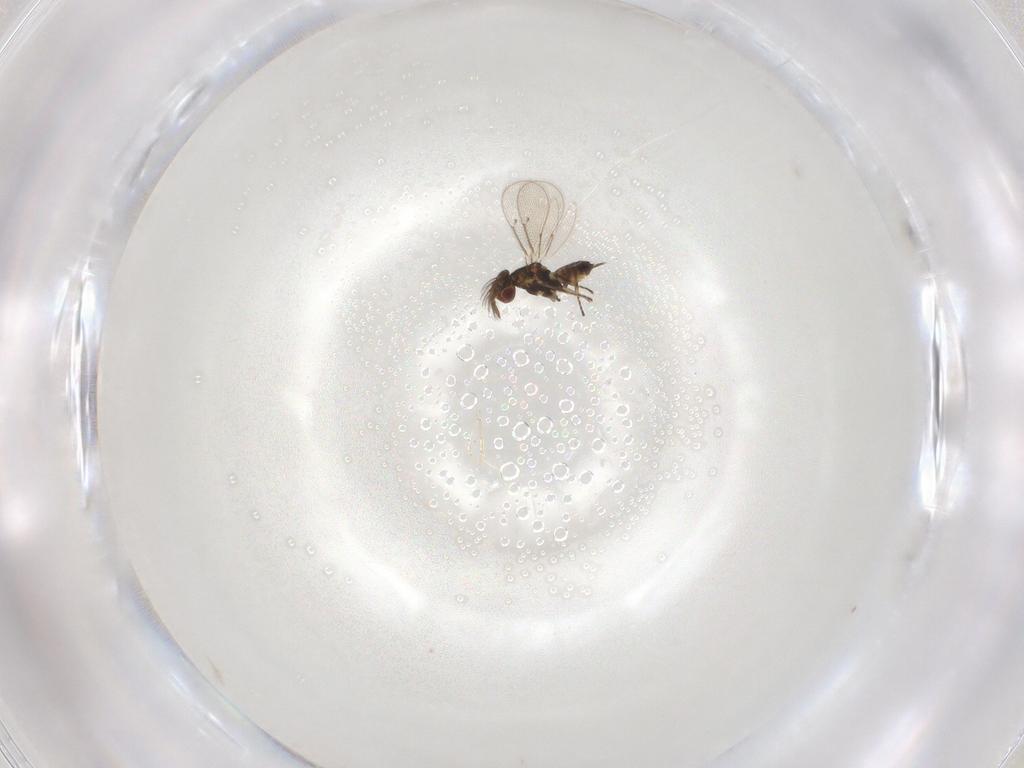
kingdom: Animalia
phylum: Arthropoda
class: Insecta
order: Hymenoptera
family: Eulophidae
